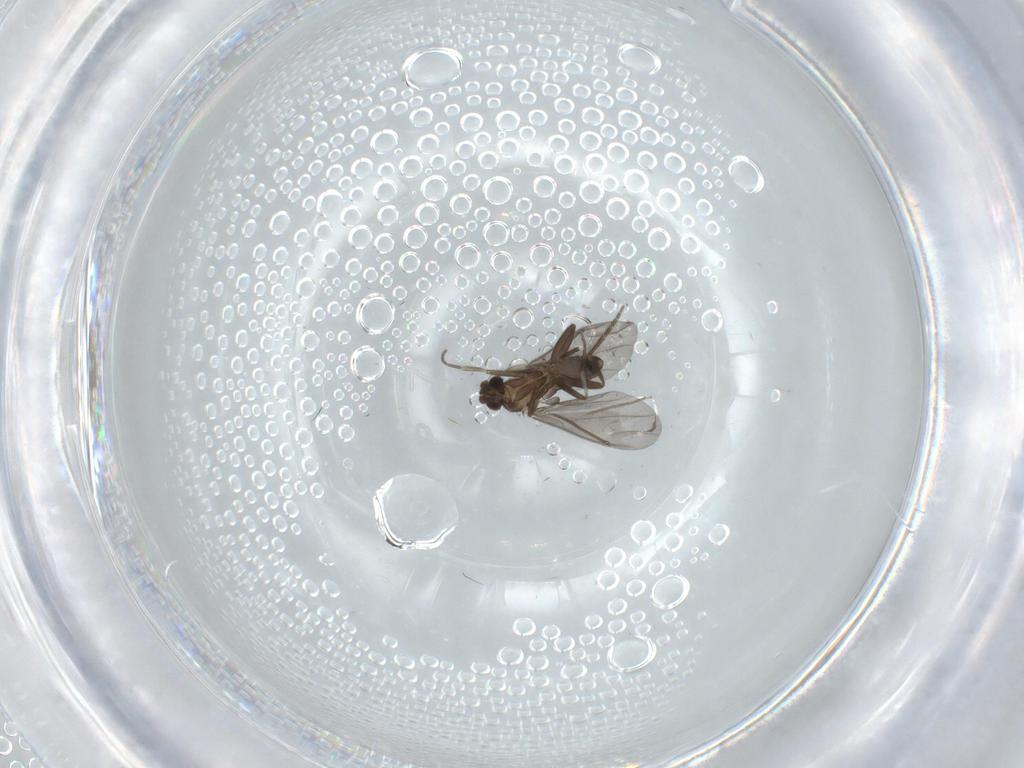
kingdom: Animalia
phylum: Arthropoda
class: Insecta
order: Diptera
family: Chironomidae
